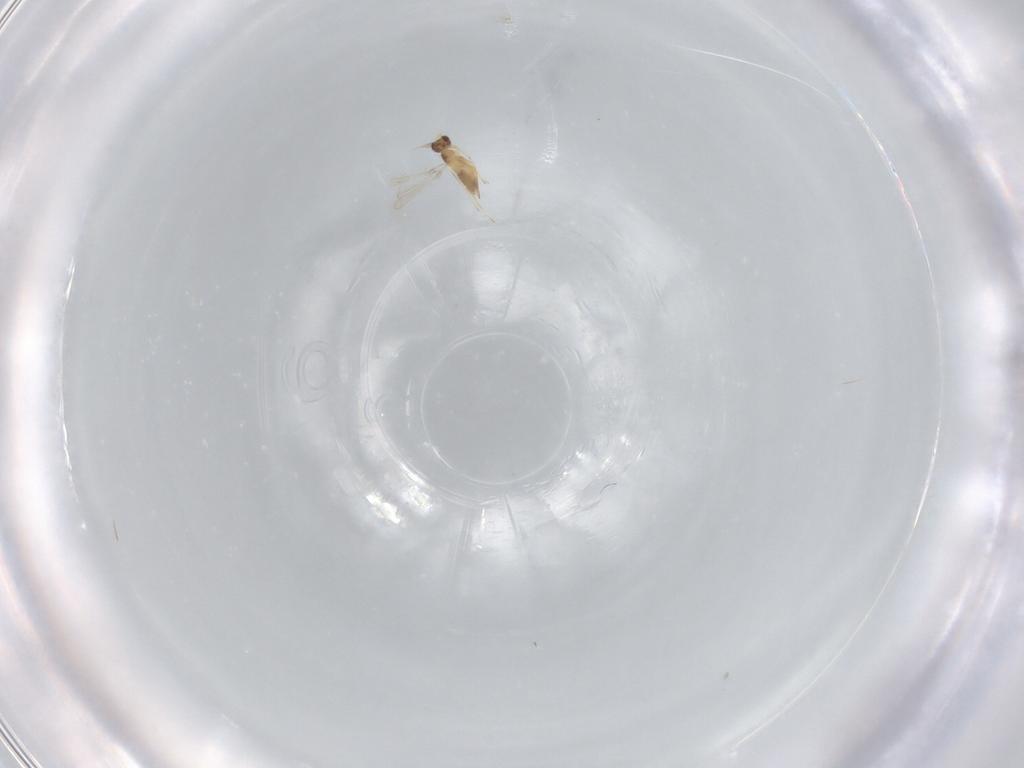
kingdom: Animalia
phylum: Arthropoda
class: Insecta
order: Hymenoptera
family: Mymaridae
